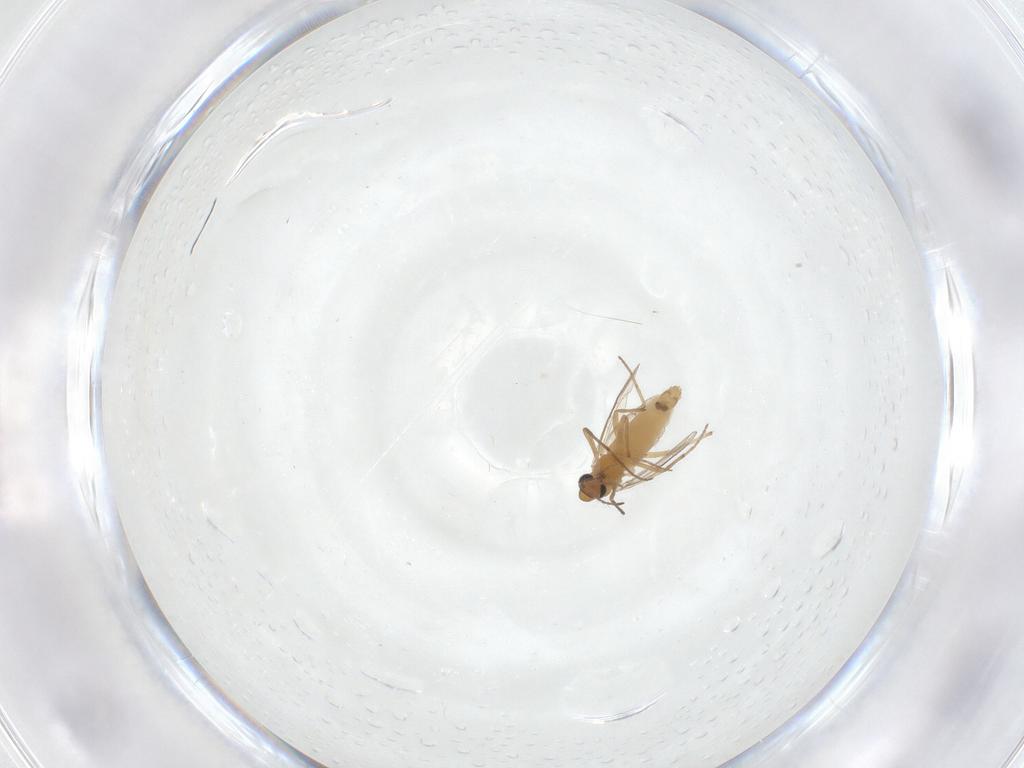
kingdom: Animalia
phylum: Arthropoda
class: Insecta
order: Diptera
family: Chironomidae
